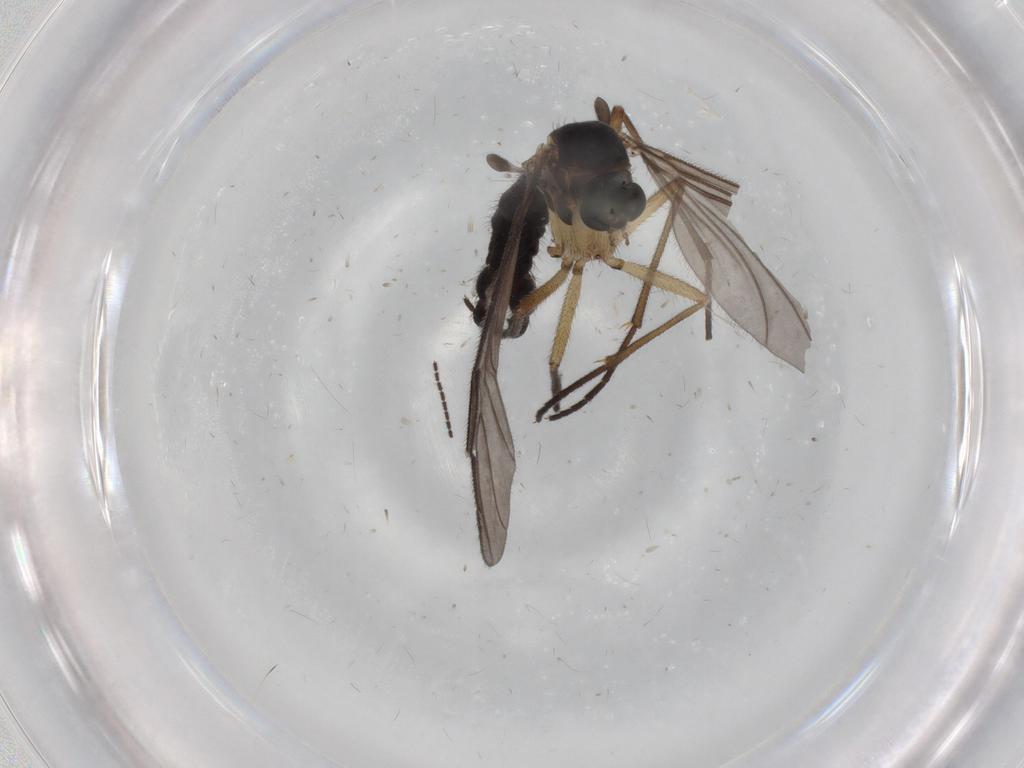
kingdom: Animalia
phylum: Arthropoda
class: Insecta
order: Diptera
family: Sciaridae
